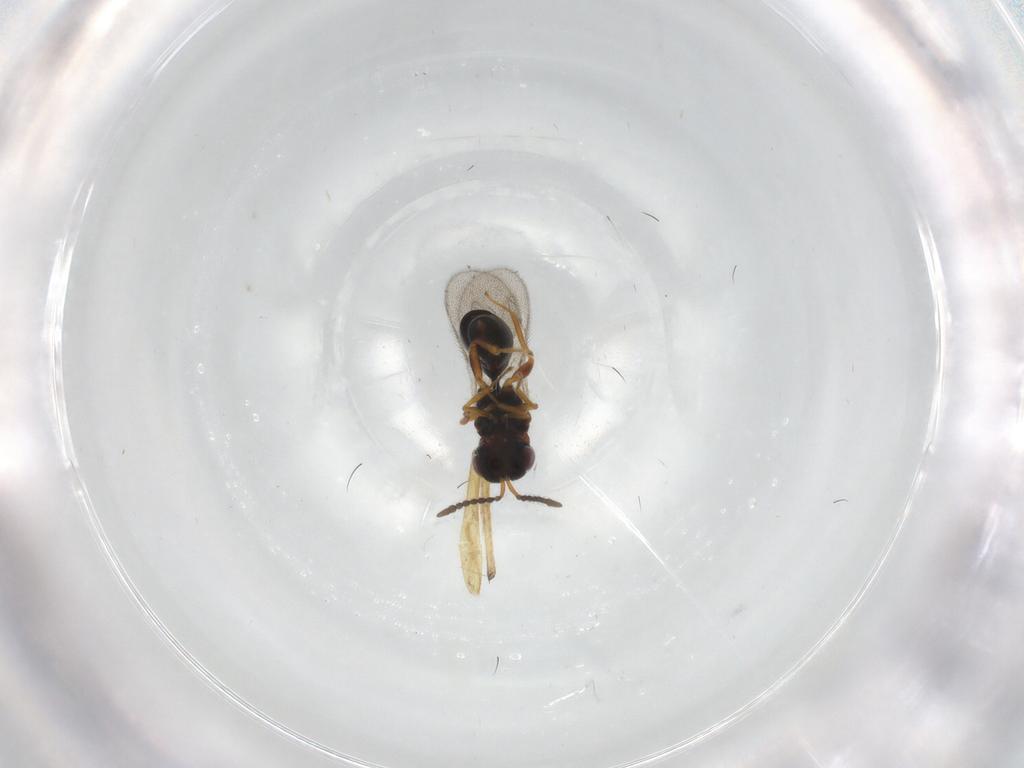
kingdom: Animalia
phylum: Arthropoda
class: Insecta
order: Hymenoptera
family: Eurytomidae
